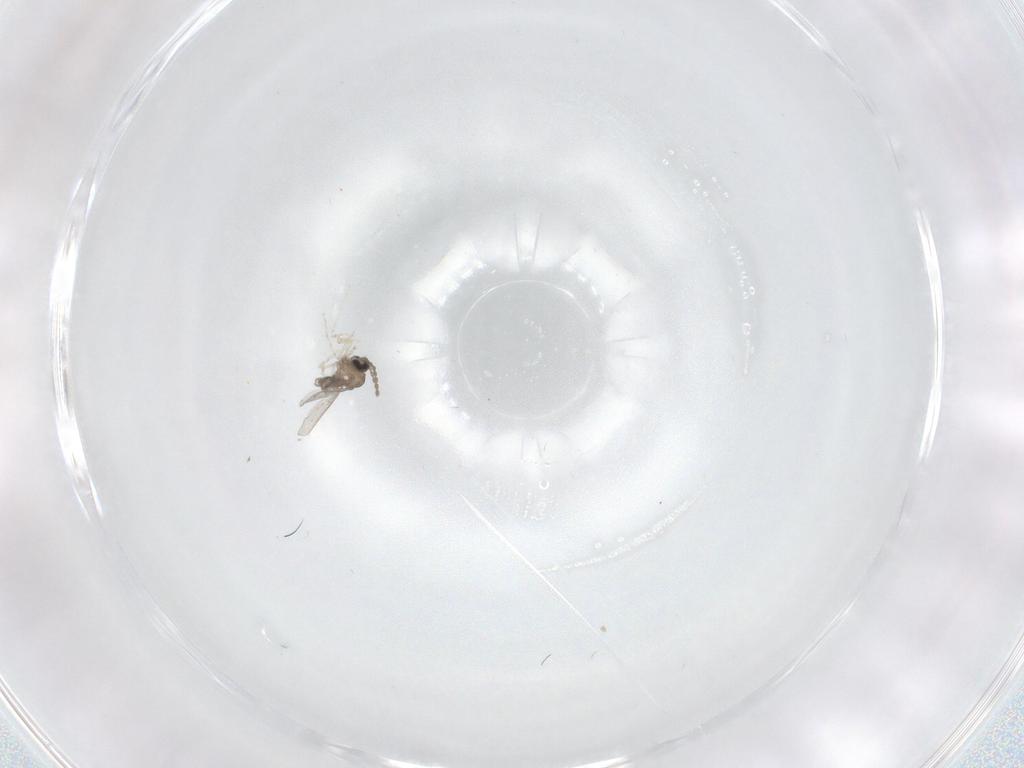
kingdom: Animalia
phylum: Arthropoda
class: Insecta
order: Diptera
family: Cecidomyiidae
